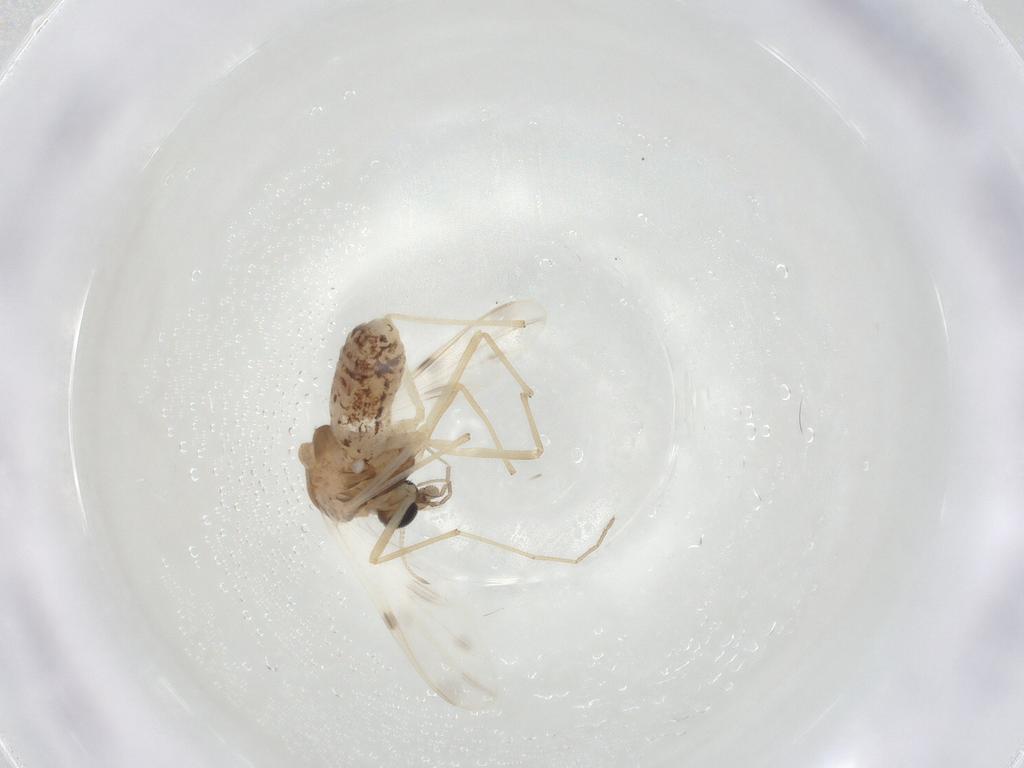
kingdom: Animalia
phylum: Arthropoda
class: Insecta
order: Diptera
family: Chironomidae
